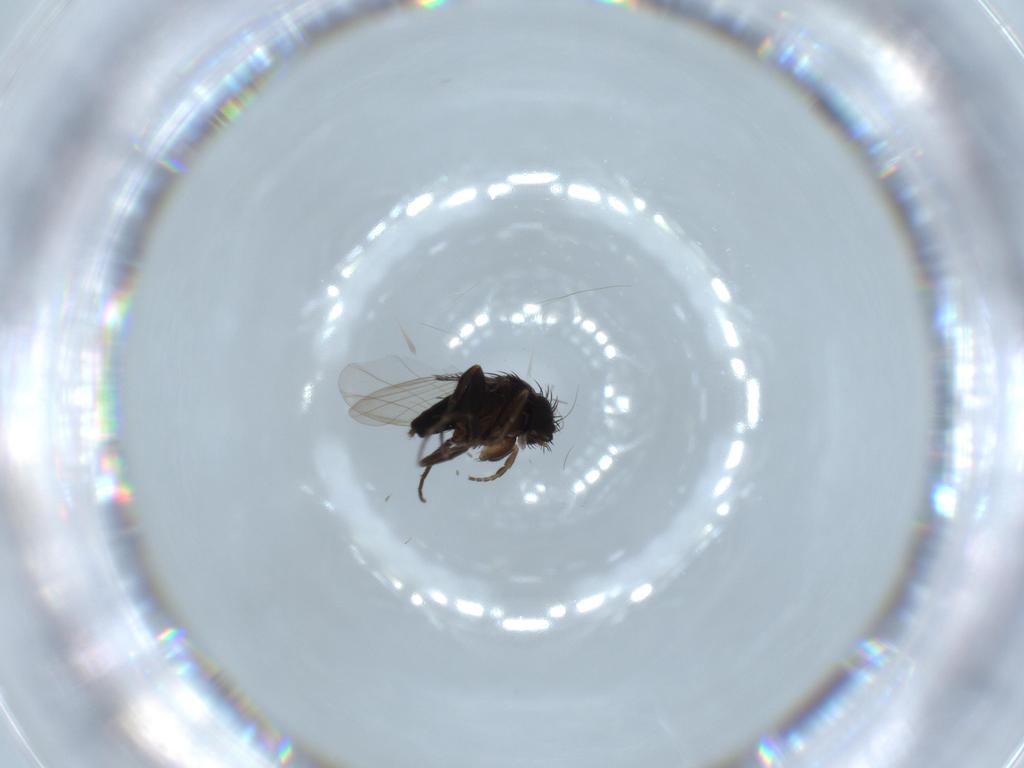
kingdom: Animalia
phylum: Arthropoda
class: Insecta
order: Diptera
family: Phoridae
